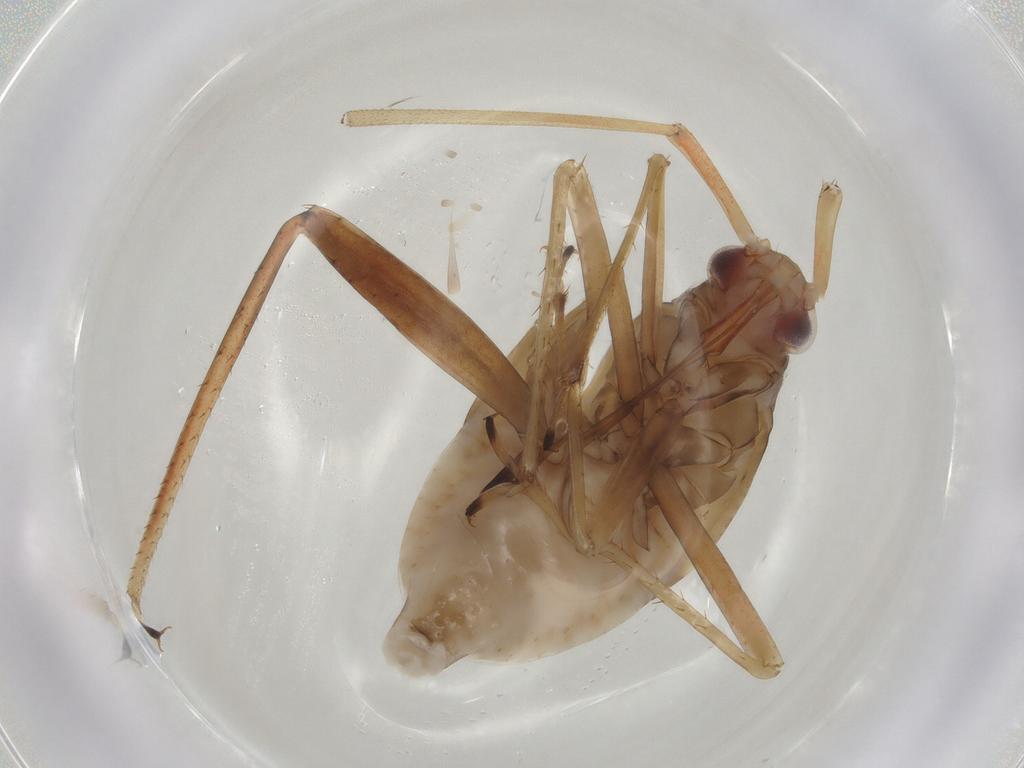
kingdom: Animalia
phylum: Arthropoda
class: Insecta
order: Hemiptera
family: Miridae
